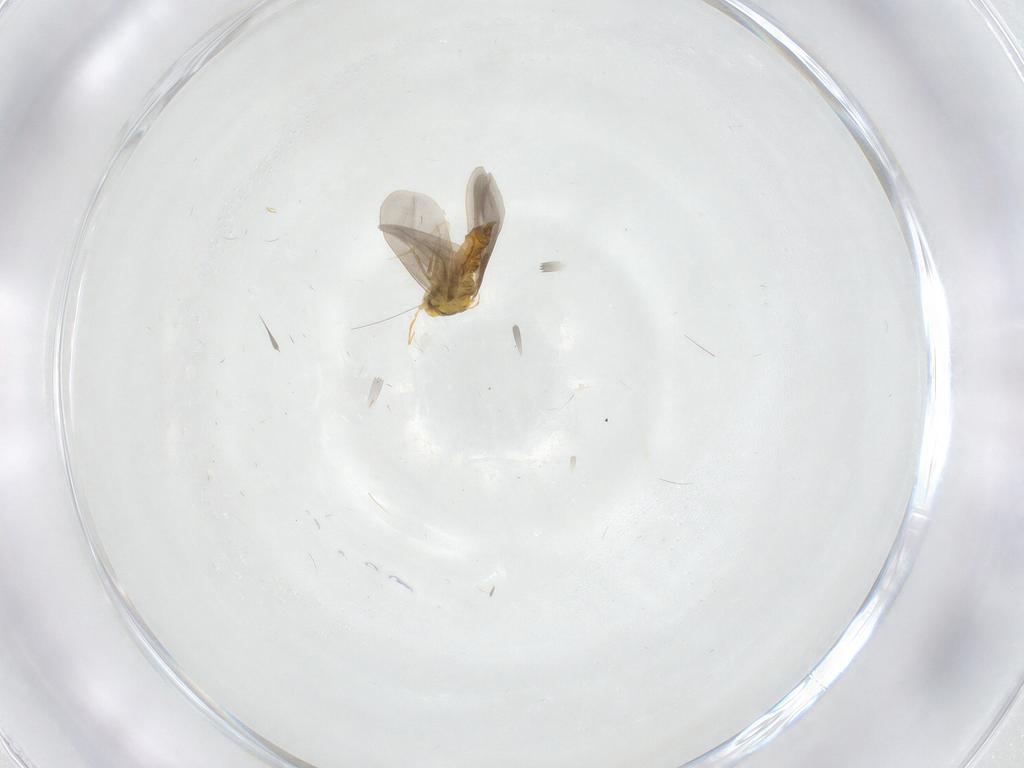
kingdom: Animalia
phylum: Arthropoda
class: Insecta
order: Hemiptera
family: Aleyrodidae
